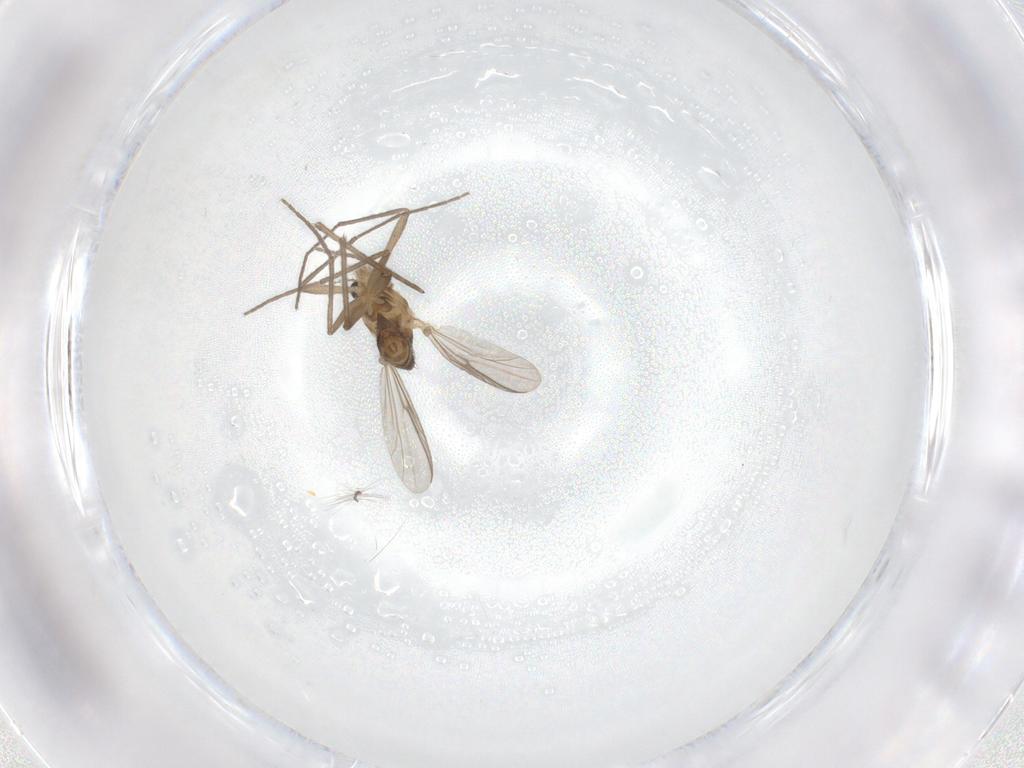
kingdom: Animalia
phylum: Arthropoda
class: Insecta
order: Diptera
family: Chironomidae
